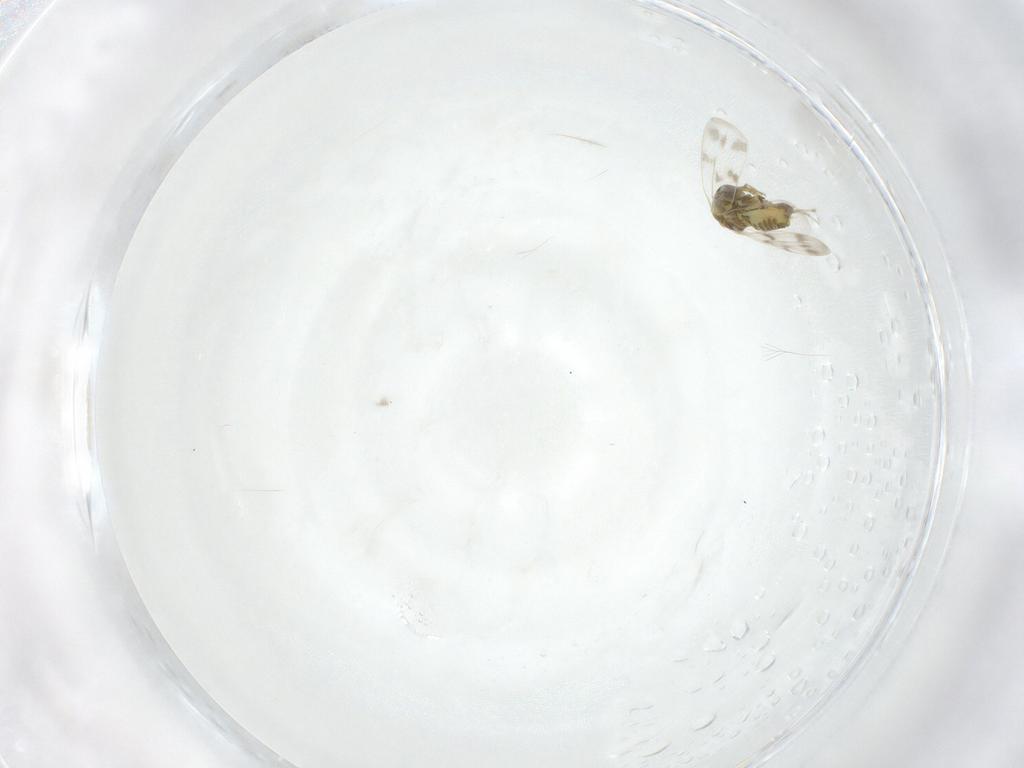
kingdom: Animalia
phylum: Arthropoda
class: Insecta
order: Hemiptera
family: Aleyrodidae
